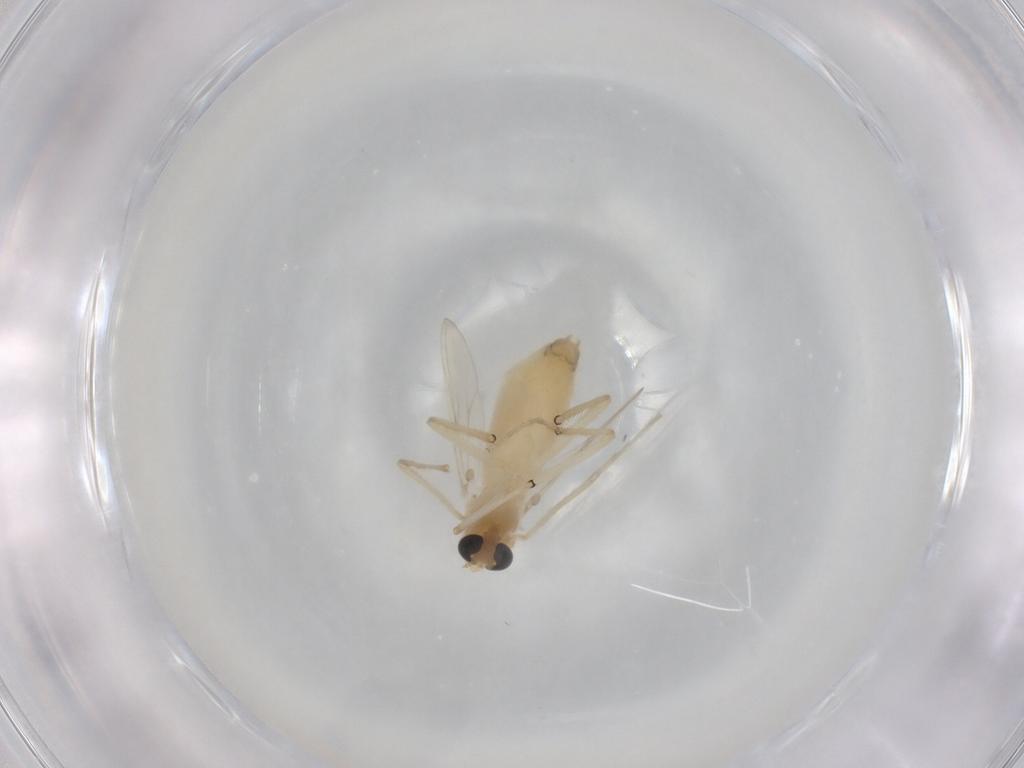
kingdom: Animalia
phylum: Arthropoda
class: Insecta
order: Diptera
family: Chironomidae
